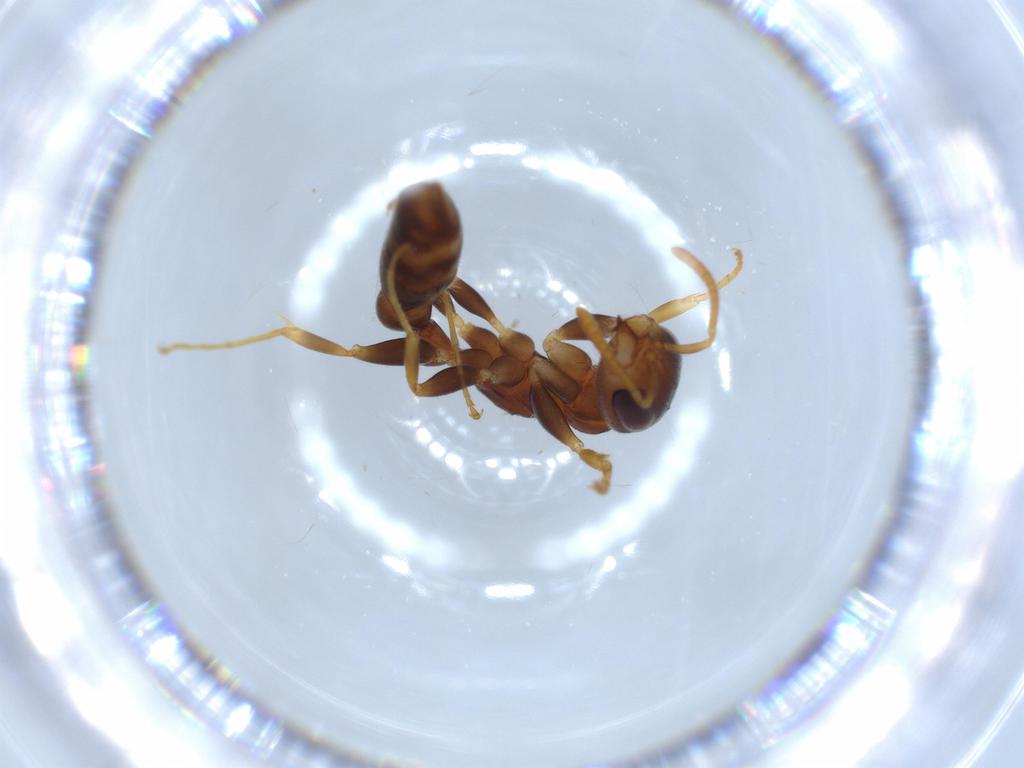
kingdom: Animalia
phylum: Arthropoda
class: Insecta
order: Hymenoptera
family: Formicidae
